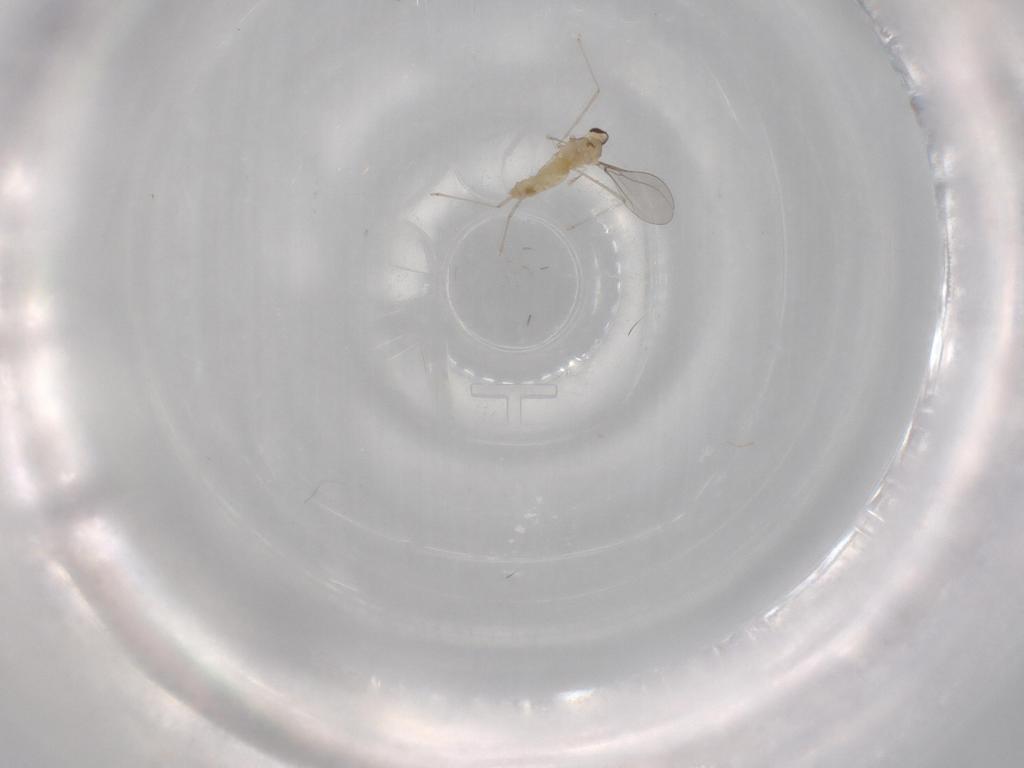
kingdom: Animalia
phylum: Arthropoda
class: Insecta
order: Diptera
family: Cecidomyiidae
